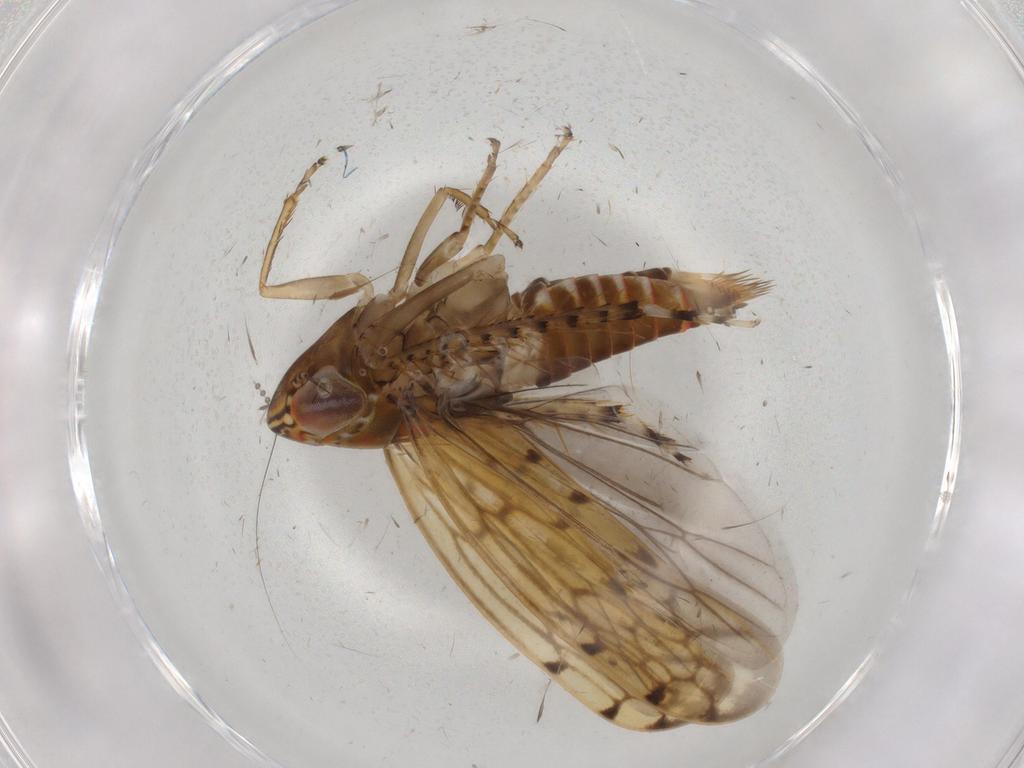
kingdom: Animalia
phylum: Arthropoda
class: Insecta
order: Hemiptera
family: Cicadellidae
